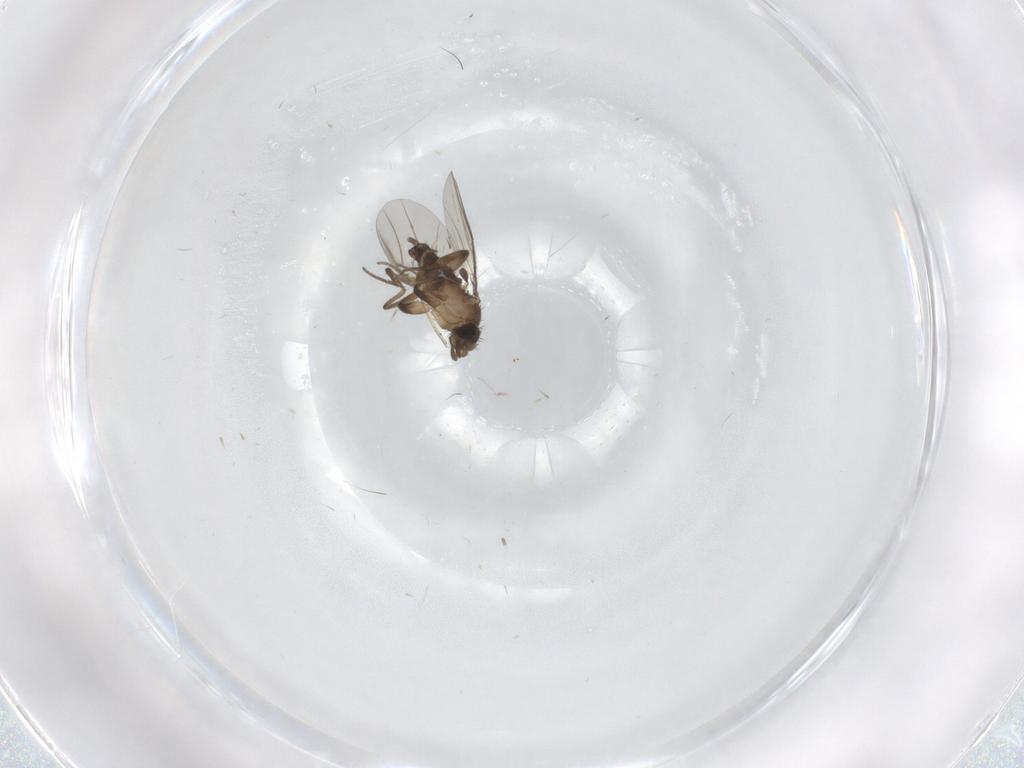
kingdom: Animalia
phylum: Arthropoda
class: Insecta
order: Diptera
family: Phoridae
